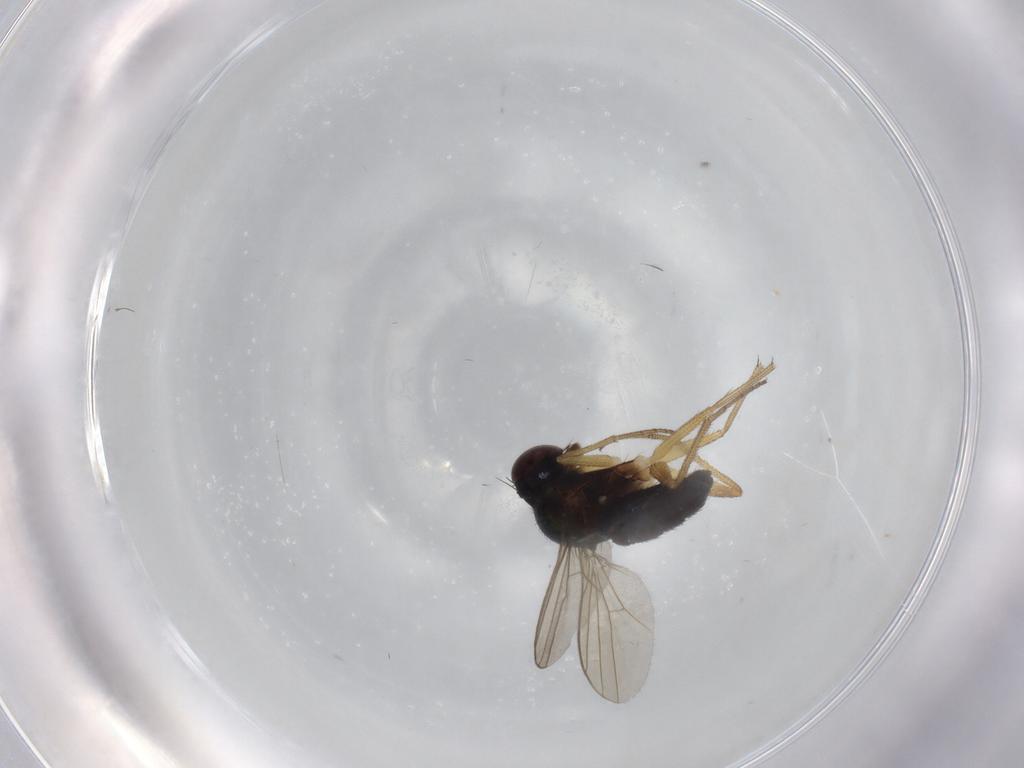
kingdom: Animalia
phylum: Arthropoda
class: Insecta
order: Diptera
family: Dolichopodidae
